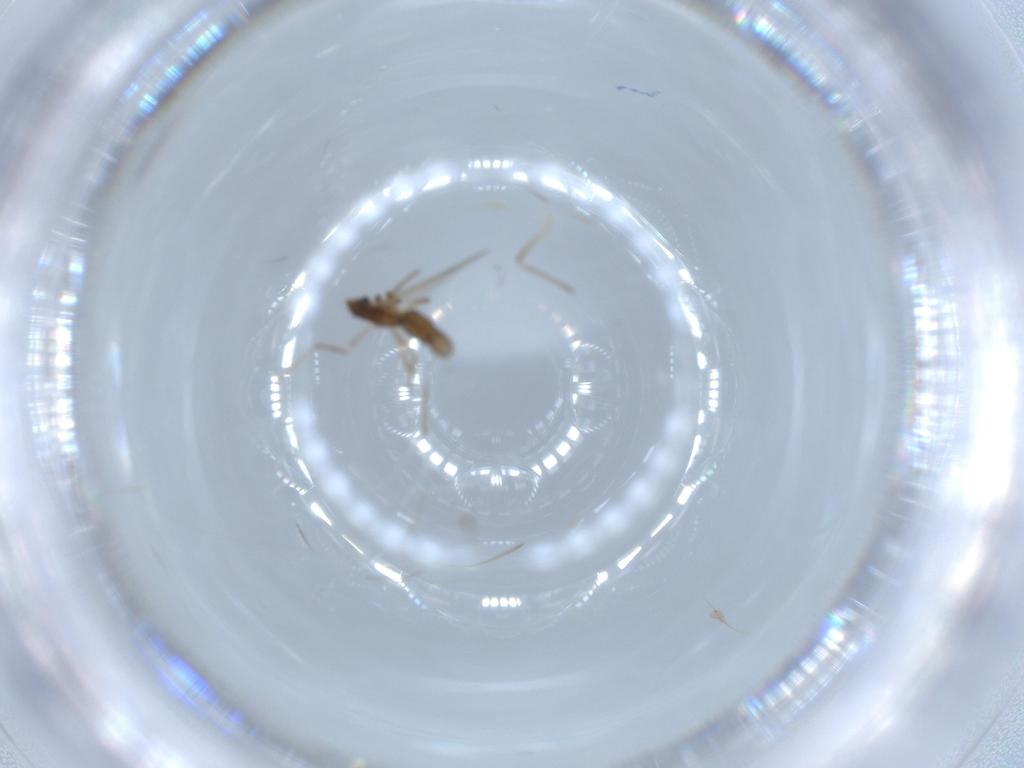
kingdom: Animalia
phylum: Arthropoda
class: Insecta
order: Diptera
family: Chironomidae
